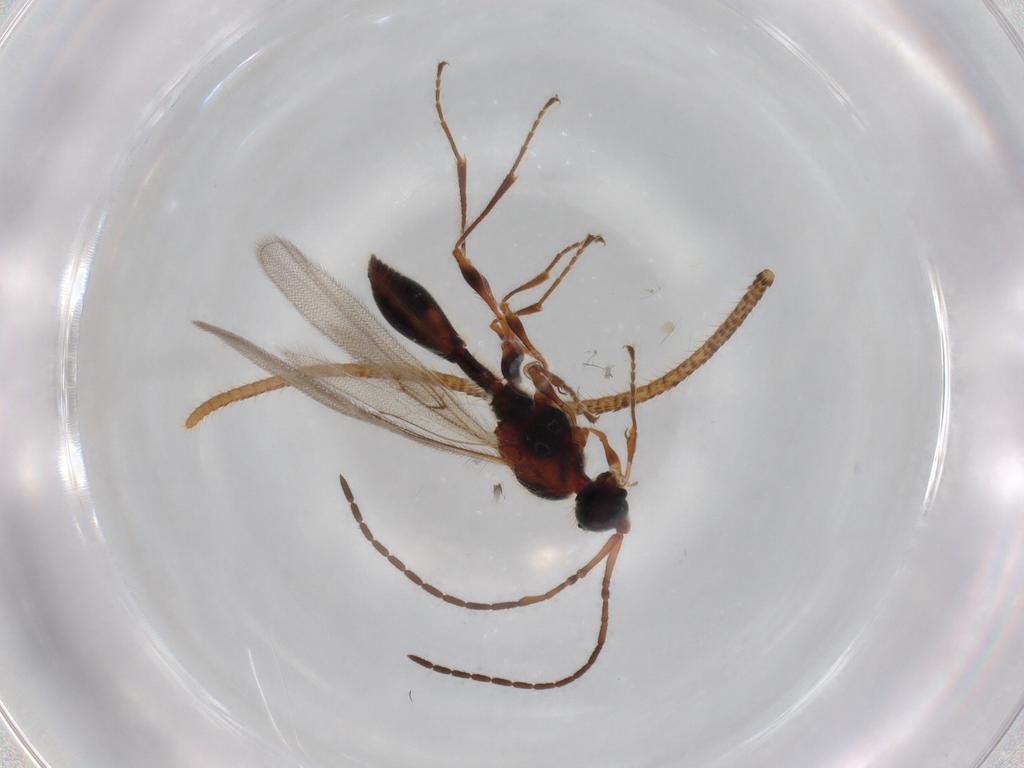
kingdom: Animalia
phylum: Arthropoda
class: Insecta
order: Hymenoptera
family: Diapriidae
